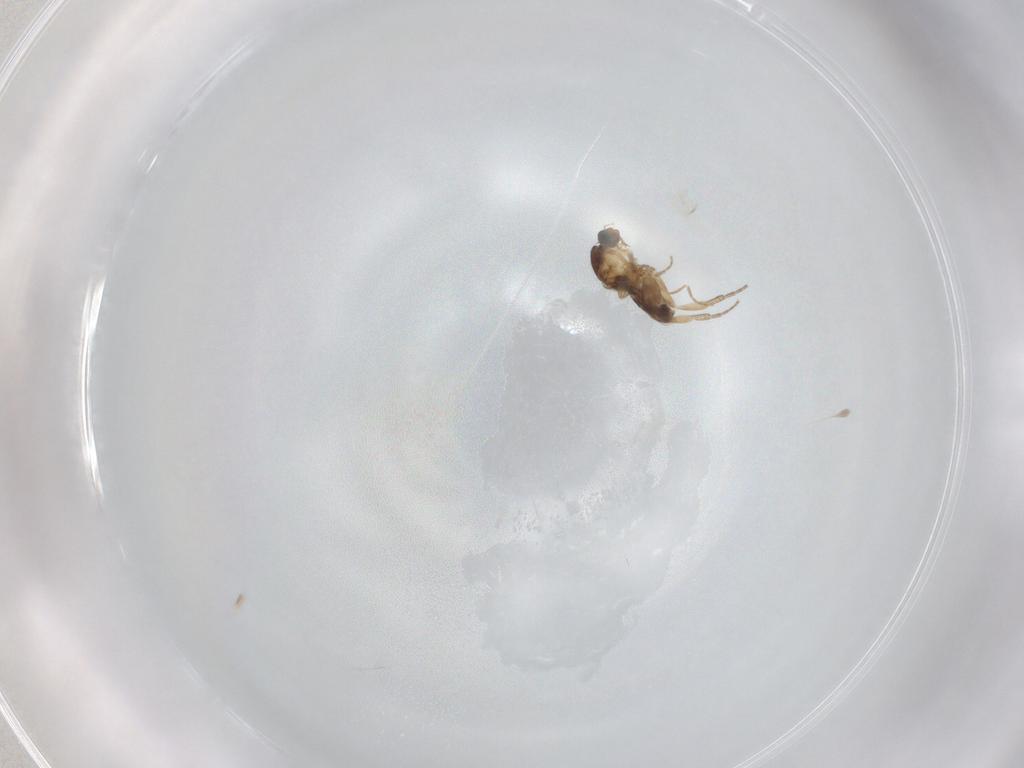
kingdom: Animalia
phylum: Arthropoda
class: Insecta
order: Diptera
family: Phoridae
